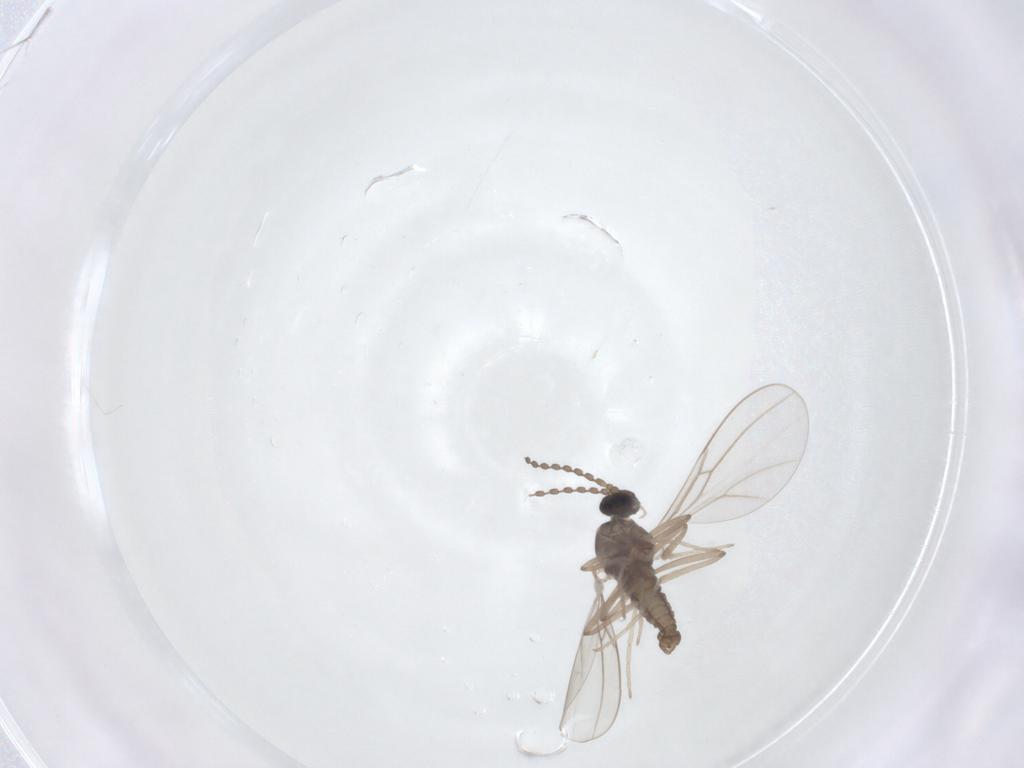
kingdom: Animalia
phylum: Arthropoda
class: Insecta
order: Diptera
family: Cecidomyiidae
